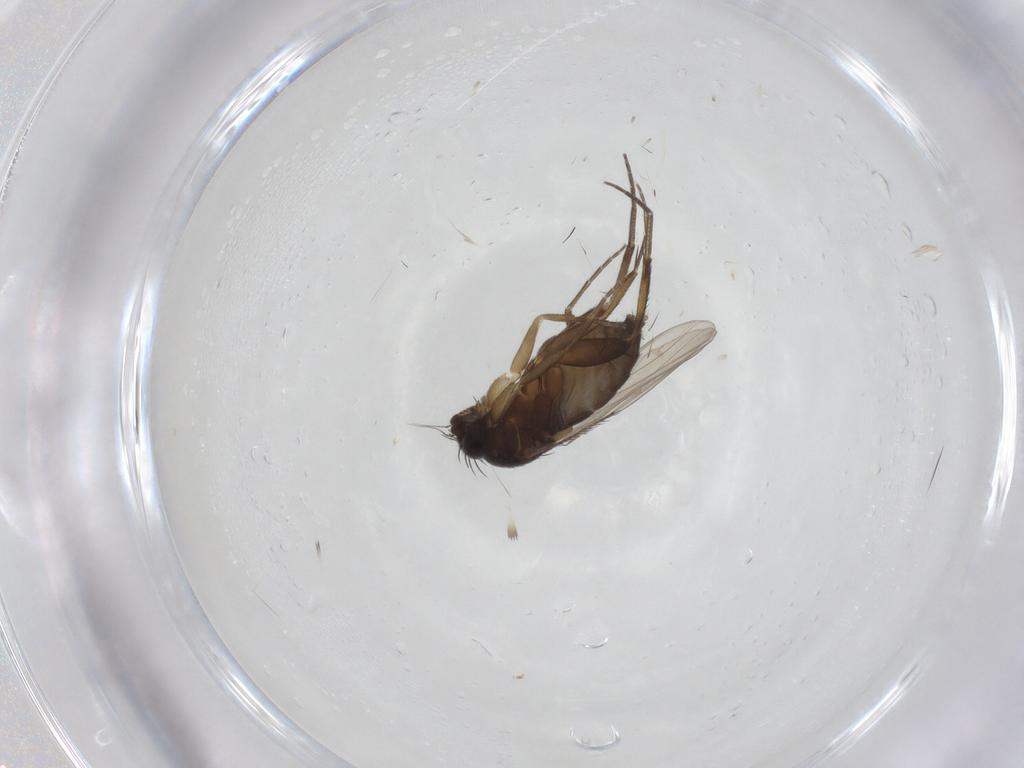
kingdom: Animalia
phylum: Arthropoda
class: Insecta
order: Diptera
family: Phoridae
